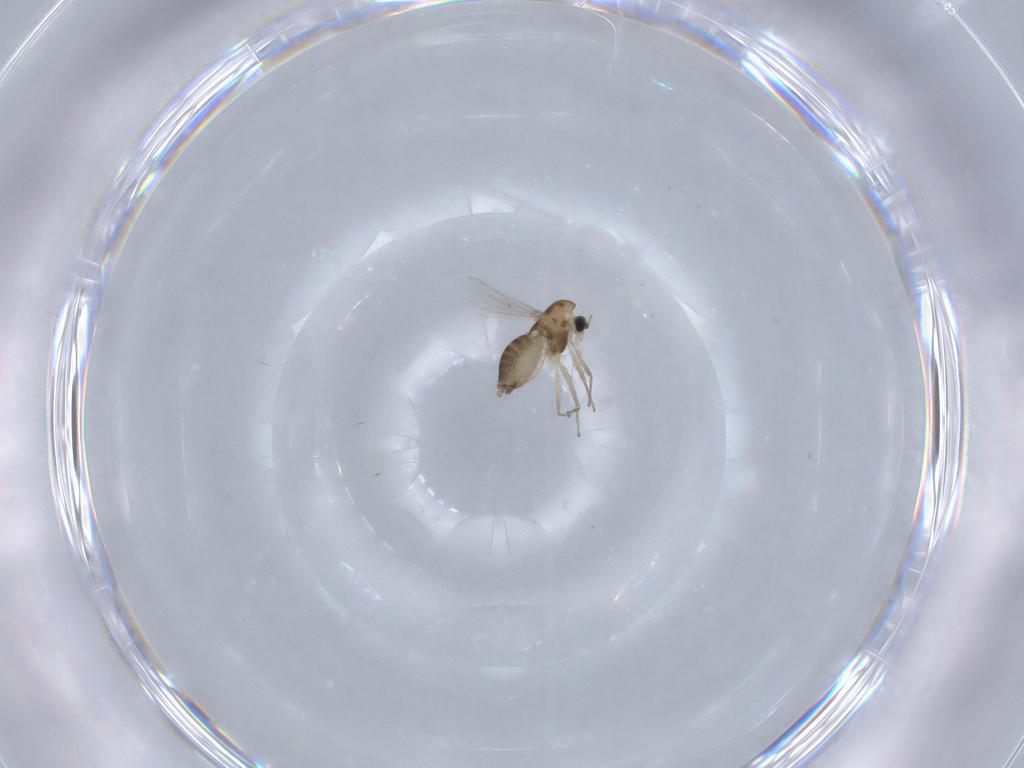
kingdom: Animalia
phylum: Arthropoda
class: Insecta
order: Diptera
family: Chironomidae
